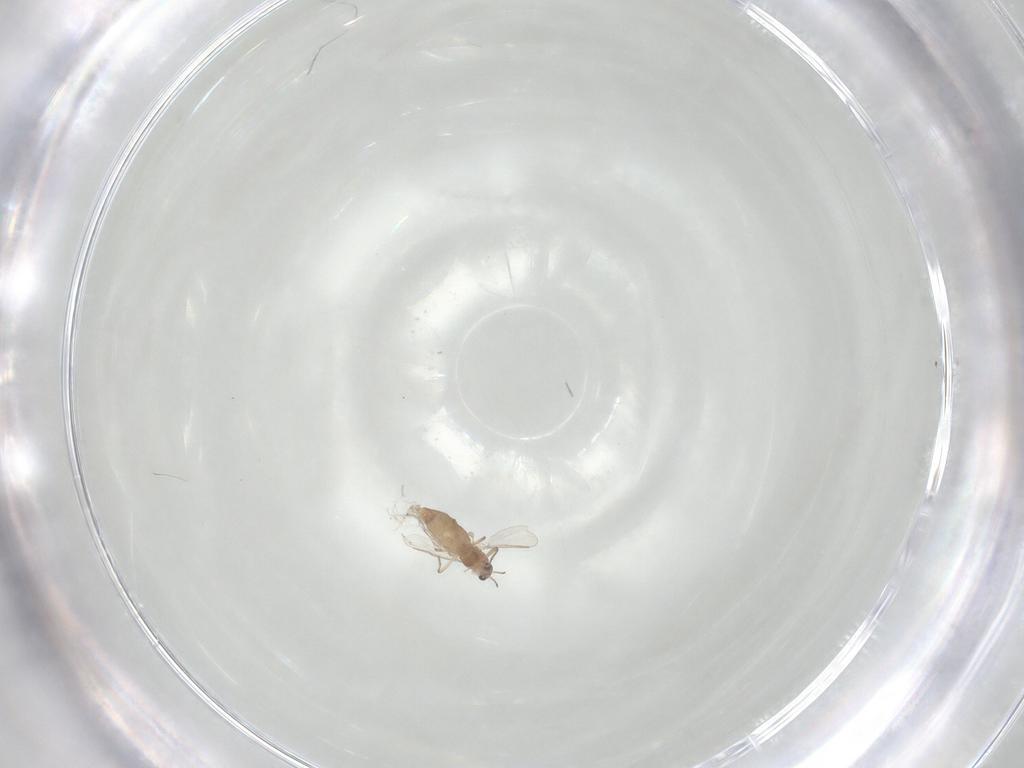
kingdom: Animalia
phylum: Arthropoda
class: Insecta
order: Diptera
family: Chironomidae
